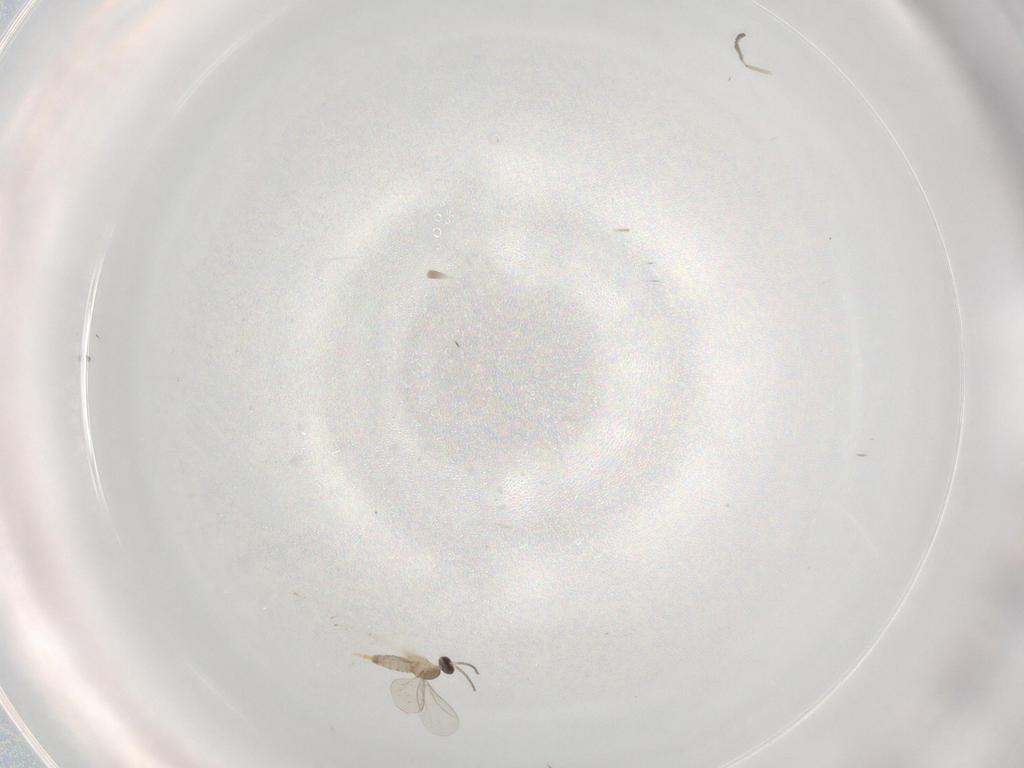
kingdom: Animalia
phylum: Arthropoda
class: Insecta
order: Diptera
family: Cecidomyiidae
